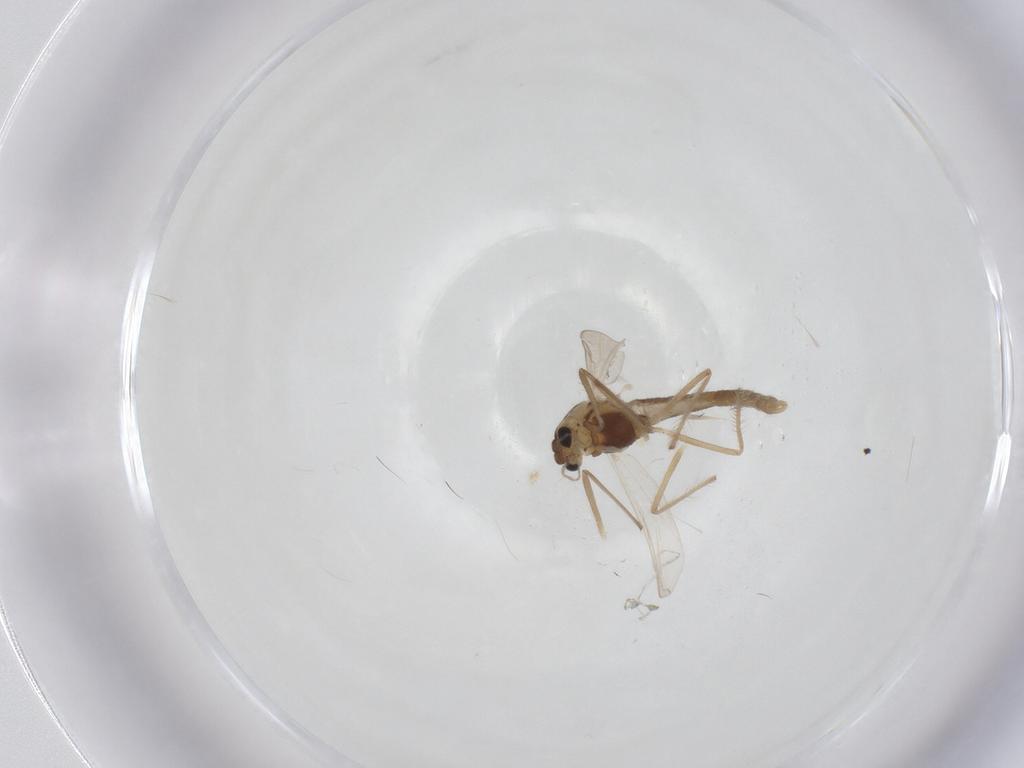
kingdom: Animalia
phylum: Arthropoda
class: Insecta
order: Diptera
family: Chironomidae
